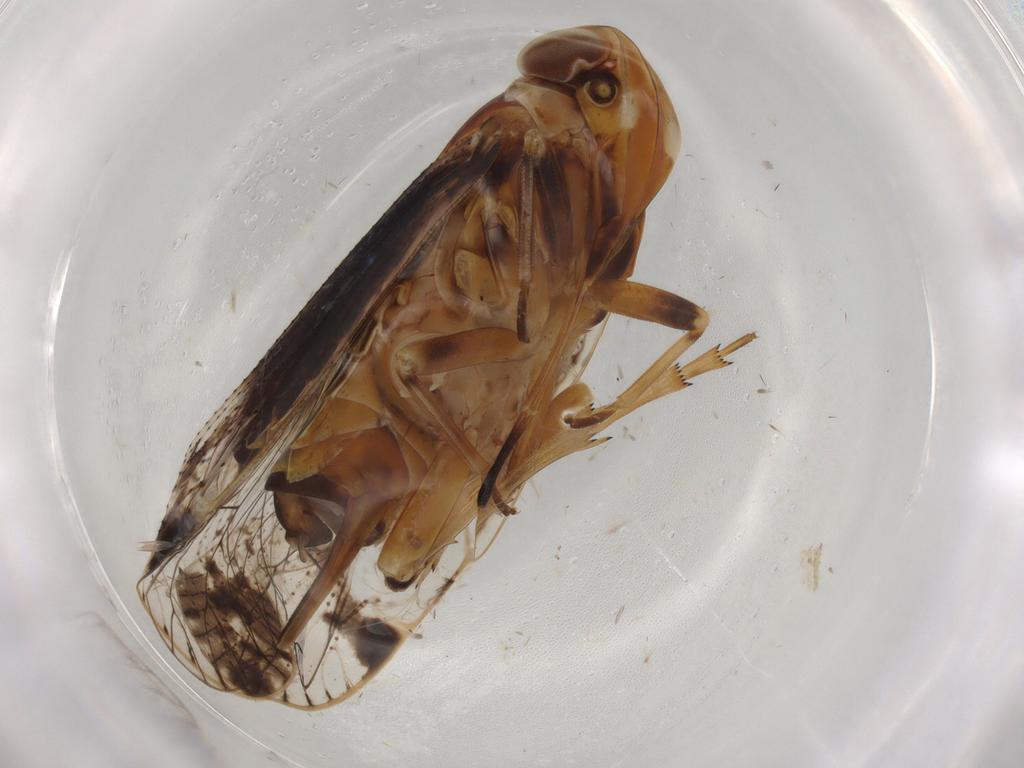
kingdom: Animalia
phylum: Arthropoda
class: Insecta
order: Hemiptera
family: Cixiidae
